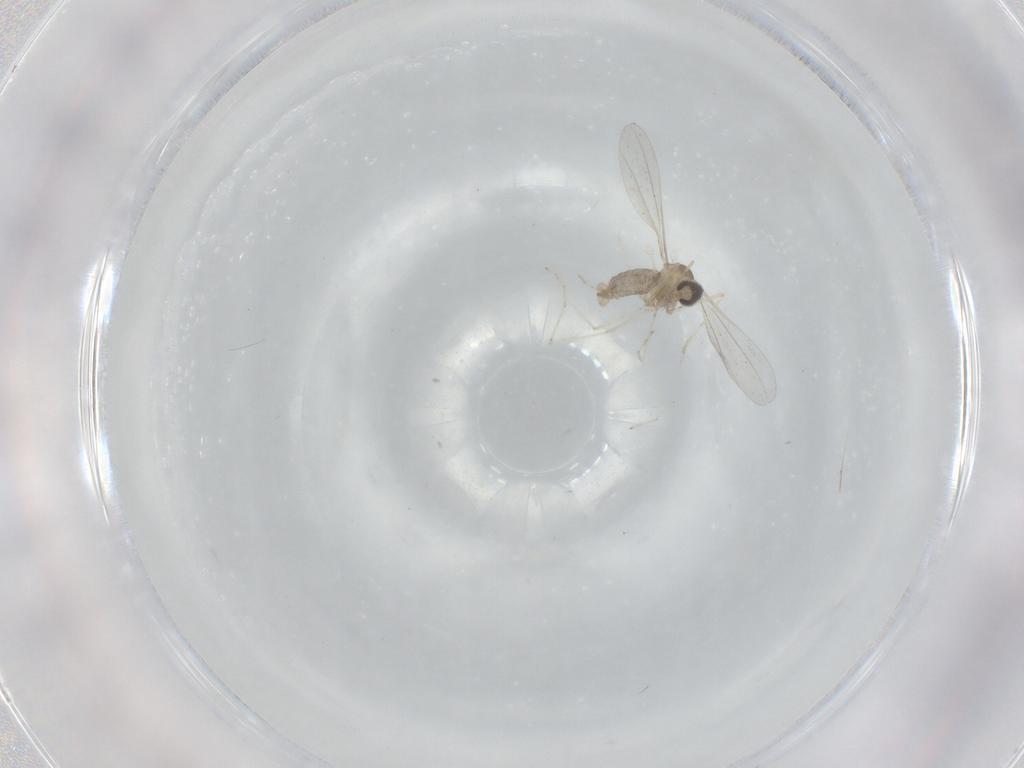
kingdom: Animalia
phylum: Arthropoda
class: Insecta
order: Diptera
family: Cecidomyiidae
